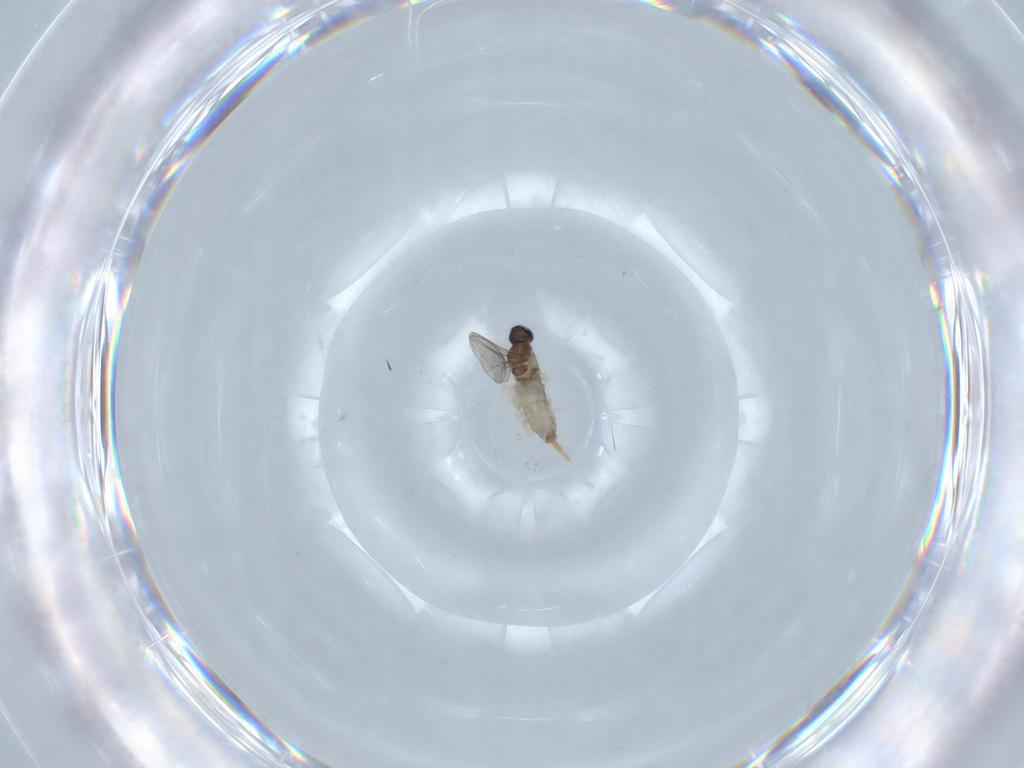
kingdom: Animalia
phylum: Arthropoda
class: Insecta
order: Diptera
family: Cecidomyiidae
